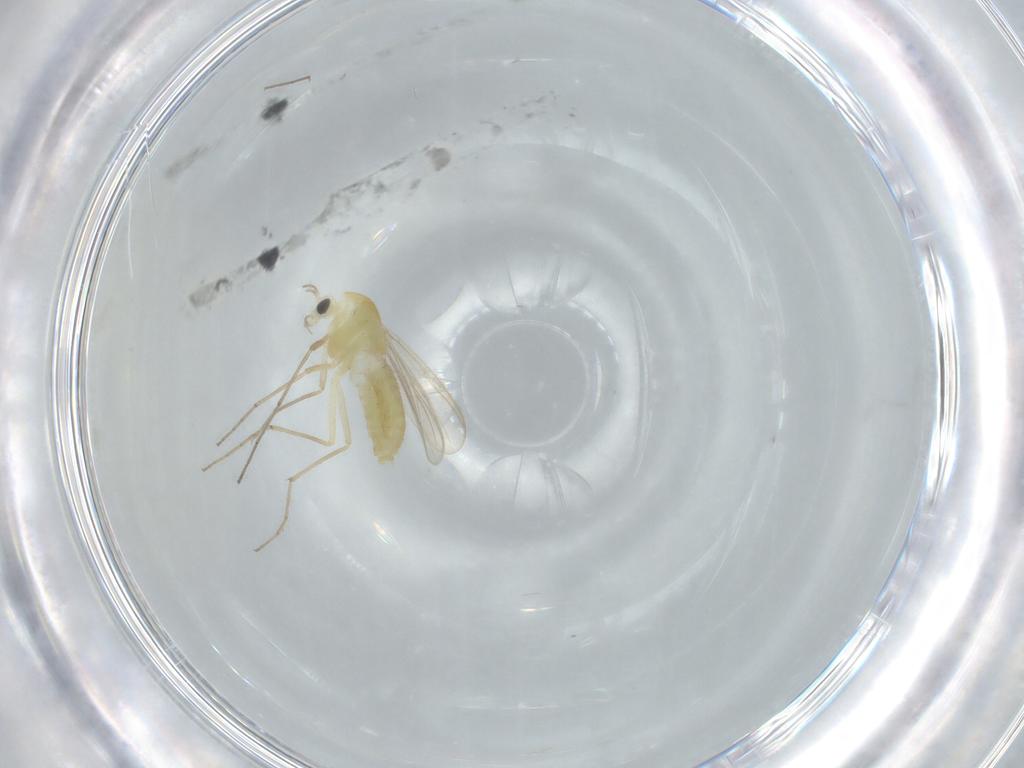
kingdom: Animalia
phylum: Arthropoda
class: Insecta
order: Diptera
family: Chironomidae
